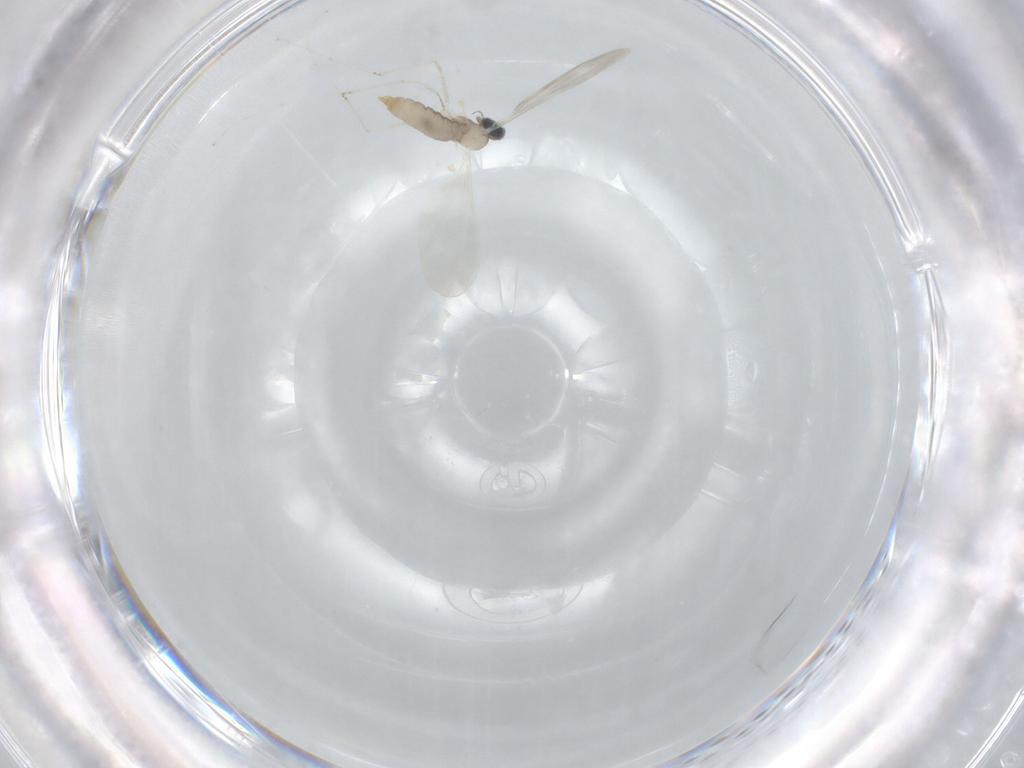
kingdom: Animalia
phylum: Arthropoda
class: Insecta
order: Diptera
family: Cecidomyiidae
